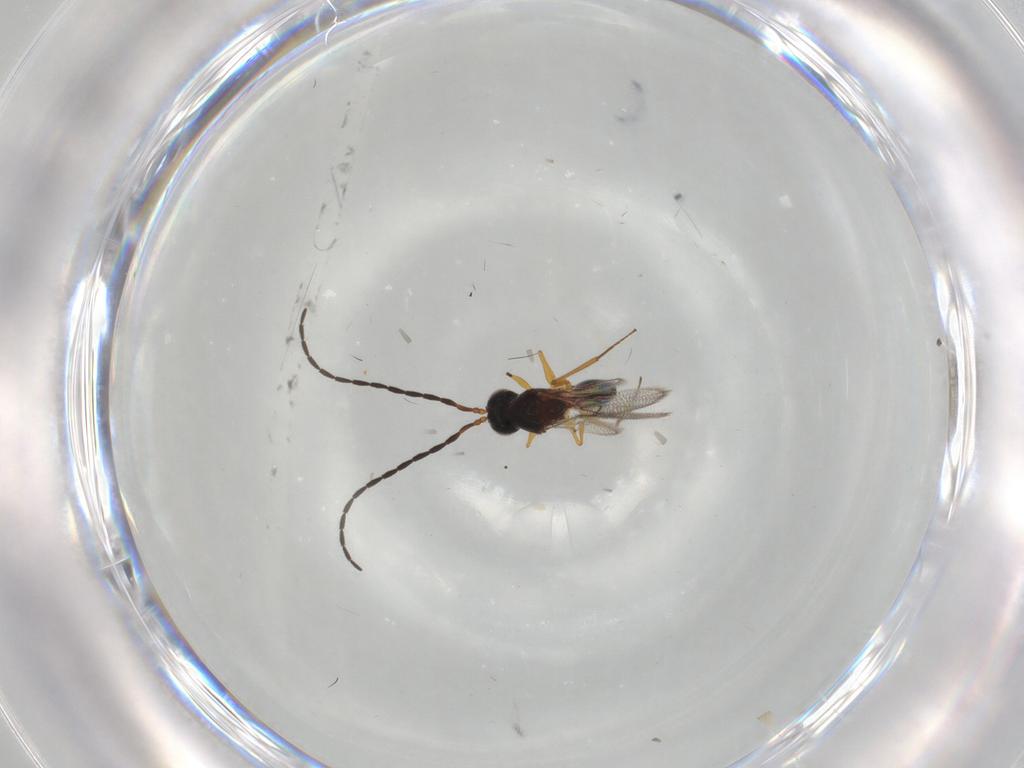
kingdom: Animalia
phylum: Arthropoda
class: Insecta
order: Hymenoptera
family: Figitidae
